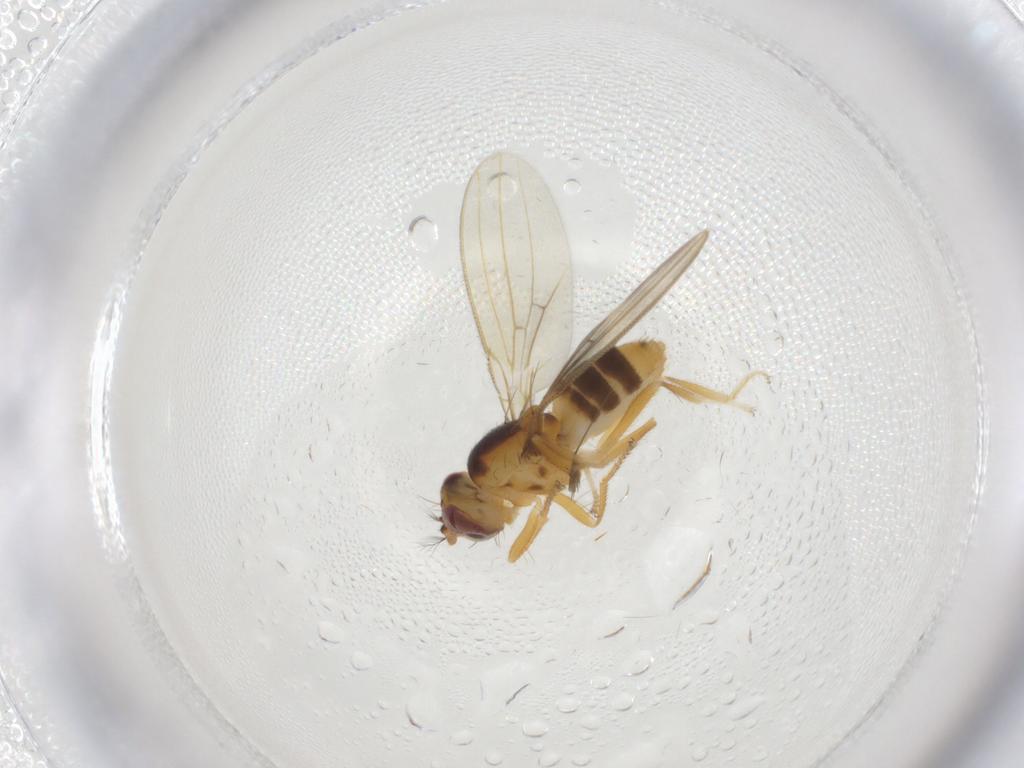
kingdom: Animalia
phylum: Arthropoda
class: Insecta
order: Diptera
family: Periscelididae
